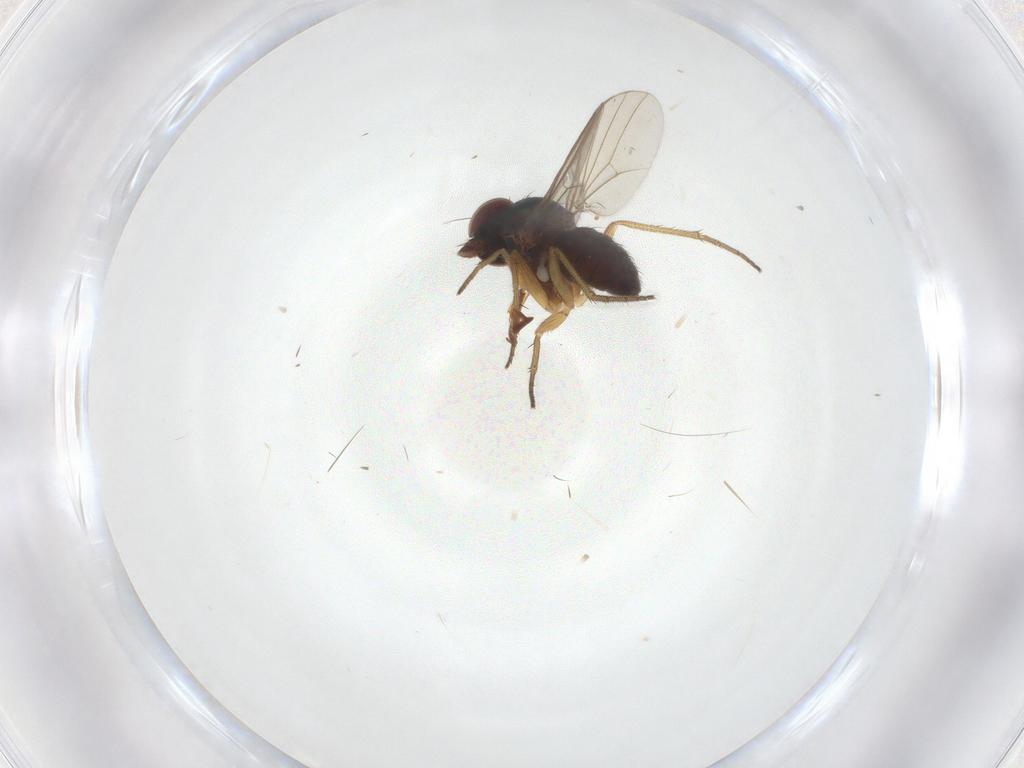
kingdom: Animalia
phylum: Arthropoda
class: Insecta
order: Diptera
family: Dolichopodidae
